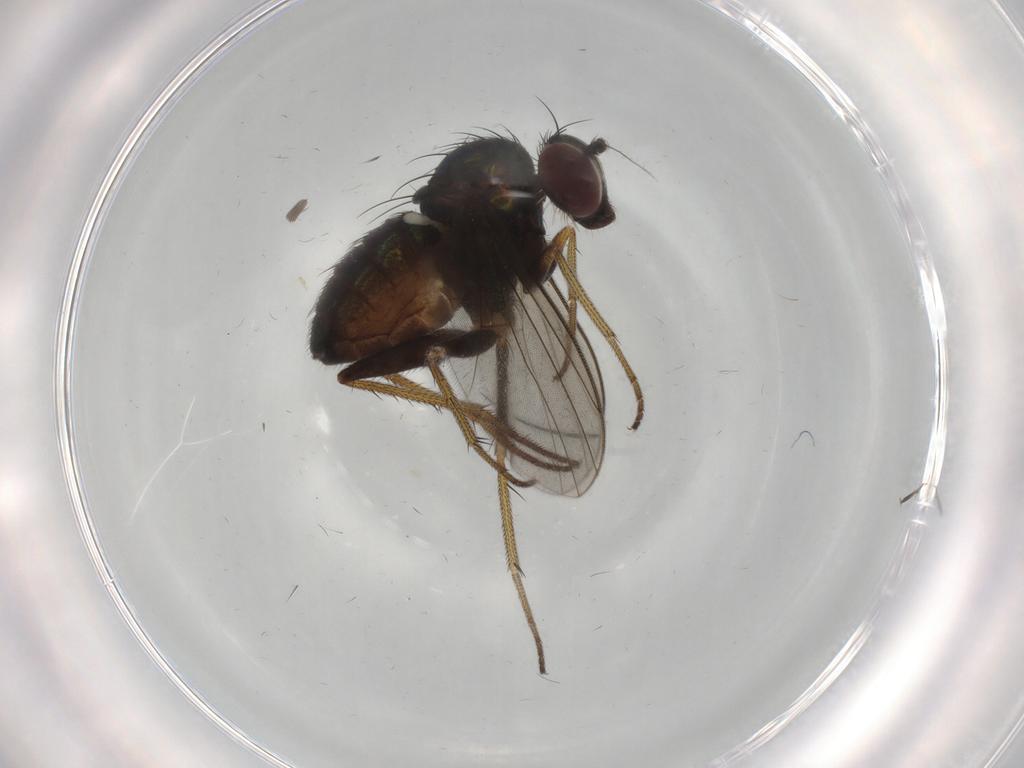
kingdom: Animalia
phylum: Arthropoda
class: Insecta
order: Diptera
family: Dolichopodidae
